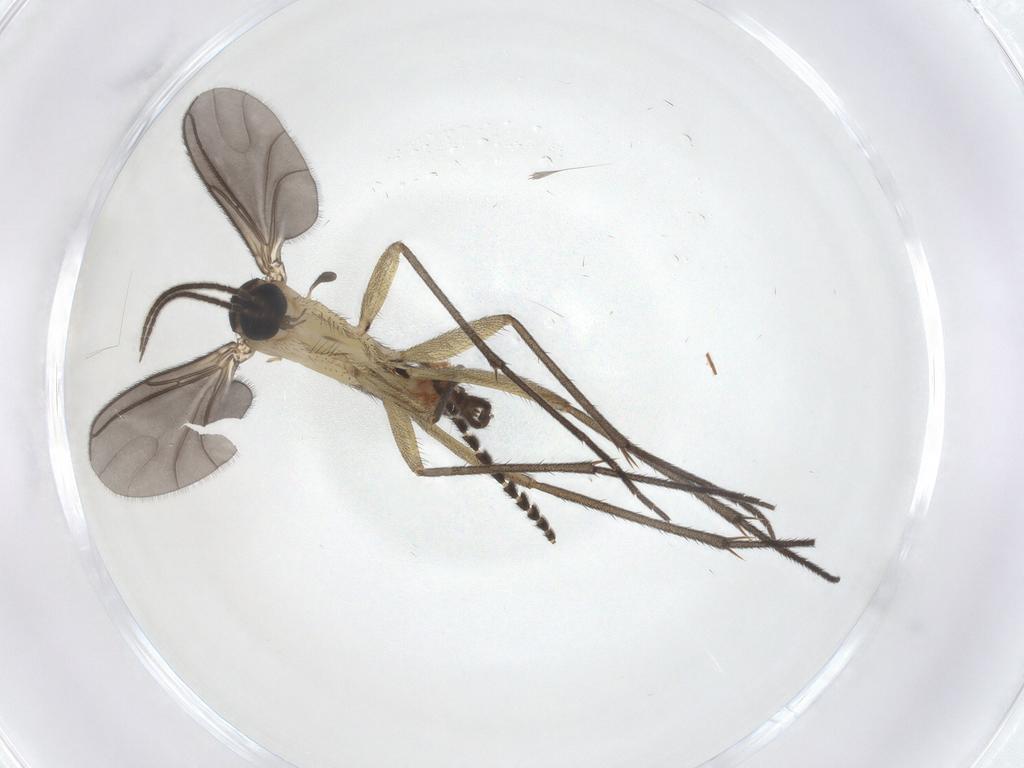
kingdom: Animalia
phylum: Arthropoda
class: Insecta
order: Diptera
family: Sciaridae
